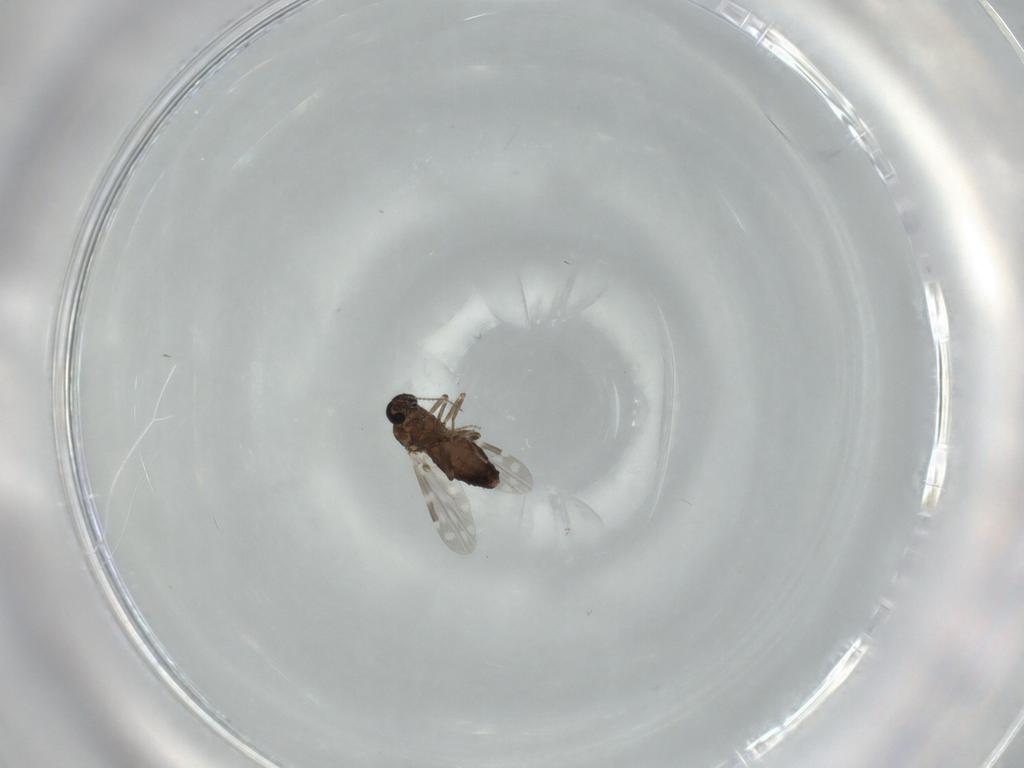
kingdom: Animalia
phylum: Arthropoda
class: Insecta
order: Diptera
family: Ceratopogonidae
